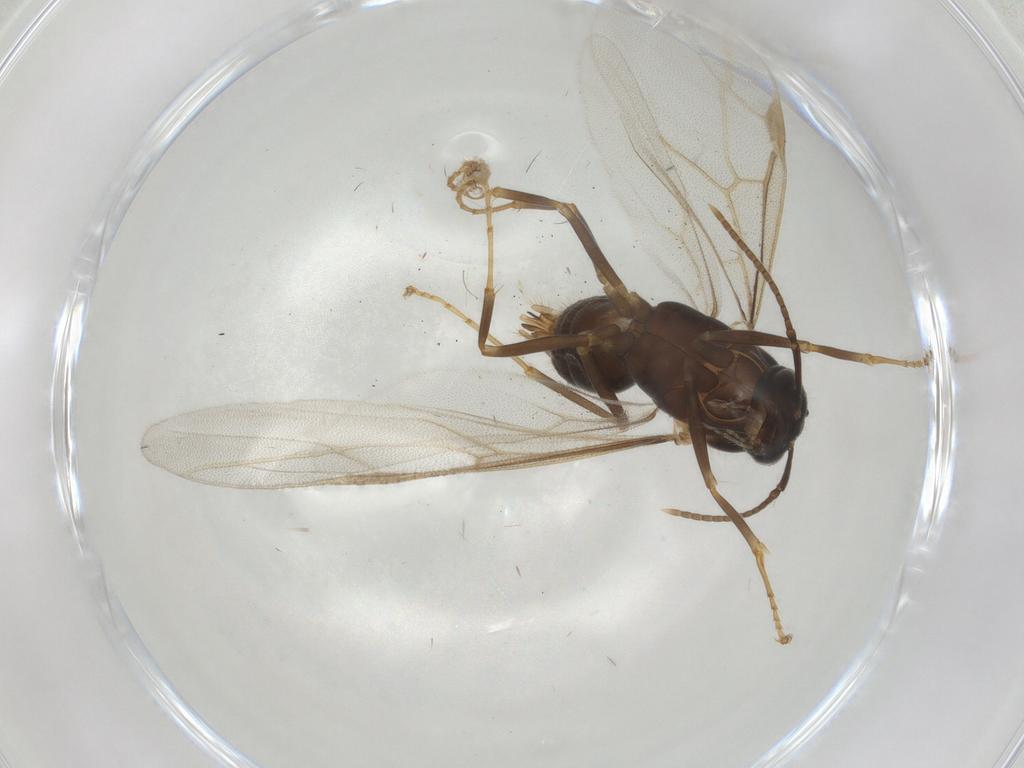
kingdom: Animalia
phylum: Arthropoda
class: Insecta
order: Hymenoptera
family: Formicidae
